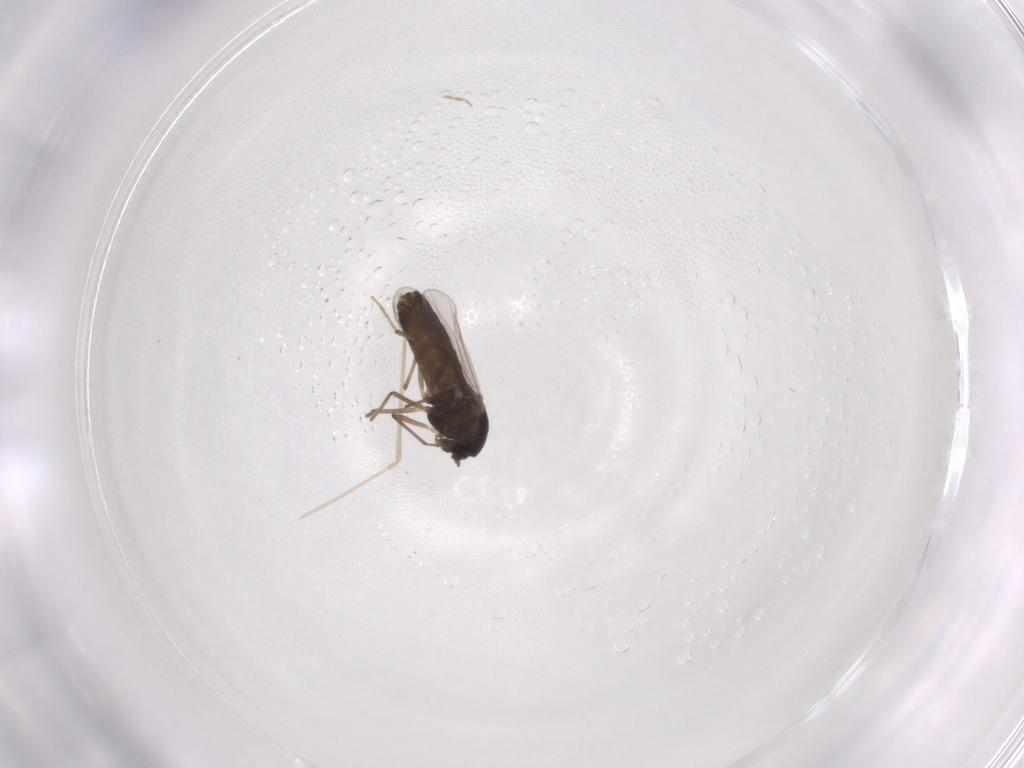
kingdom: Animalia
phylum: Arthropoda
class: Insecta
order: Diptera
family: Chironomidae
